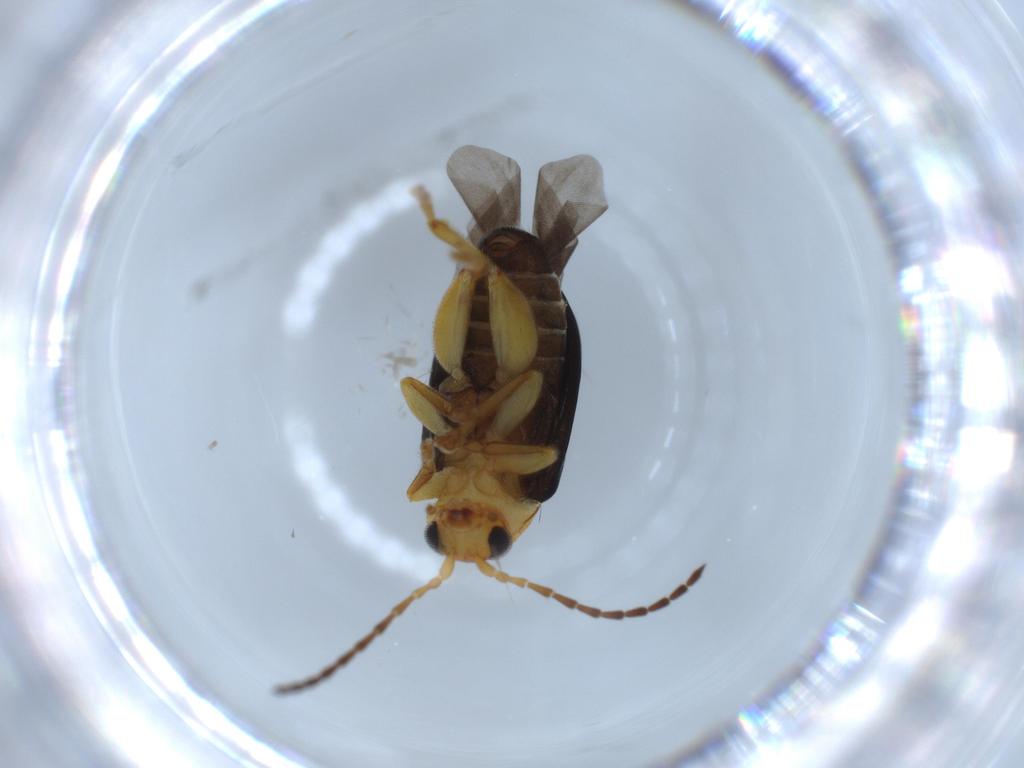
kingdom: Animalia
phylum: Arthropoda
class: Insecta
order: Coleoptera
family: Chrysomelidae
